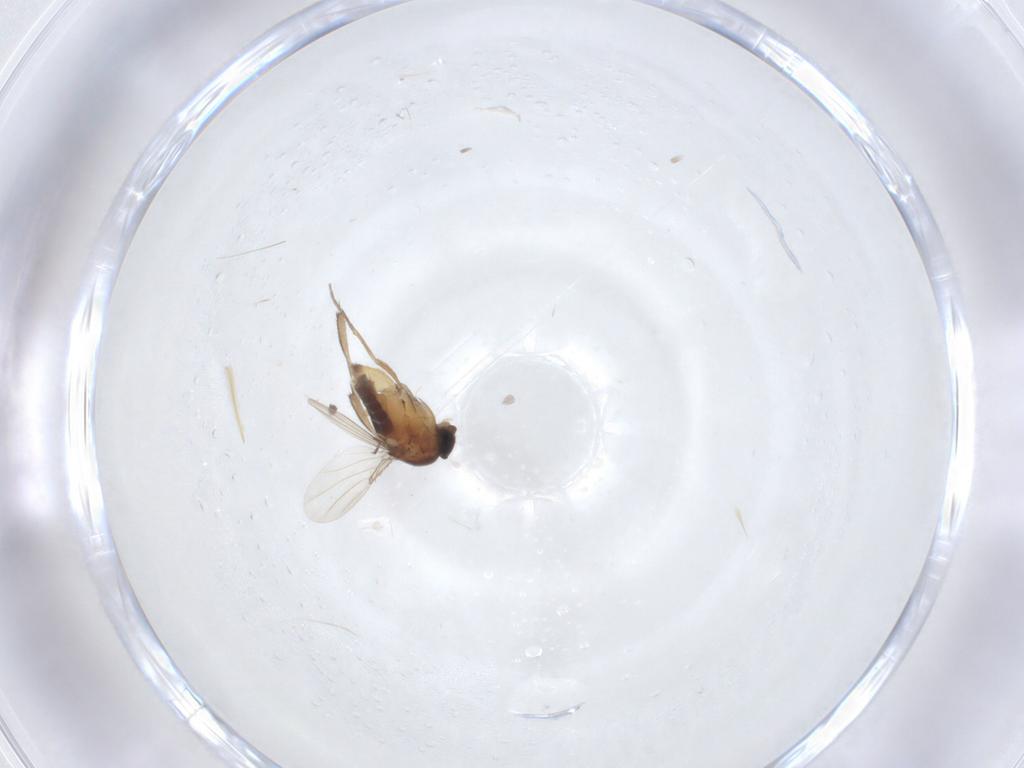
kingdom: Animalia
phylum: Arthropoda
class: Insecta
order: Diptera
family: Phoridae
